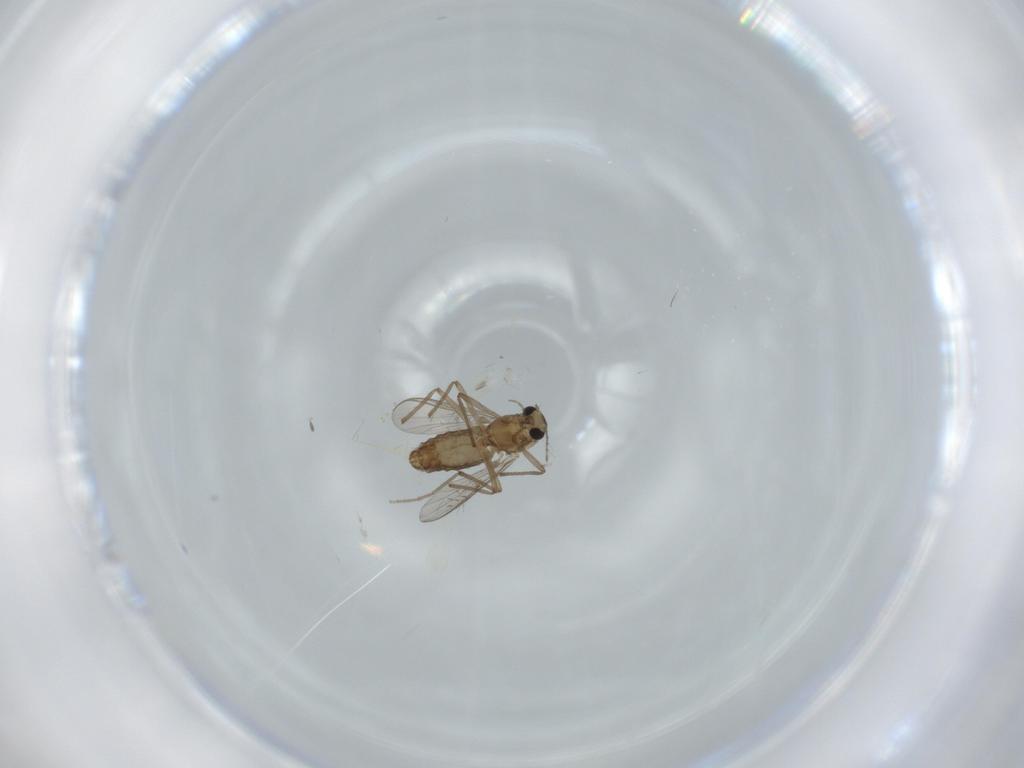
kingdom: Animalia
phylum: Arthropoda
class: Insecta
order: Diptera
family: Chironomidae
